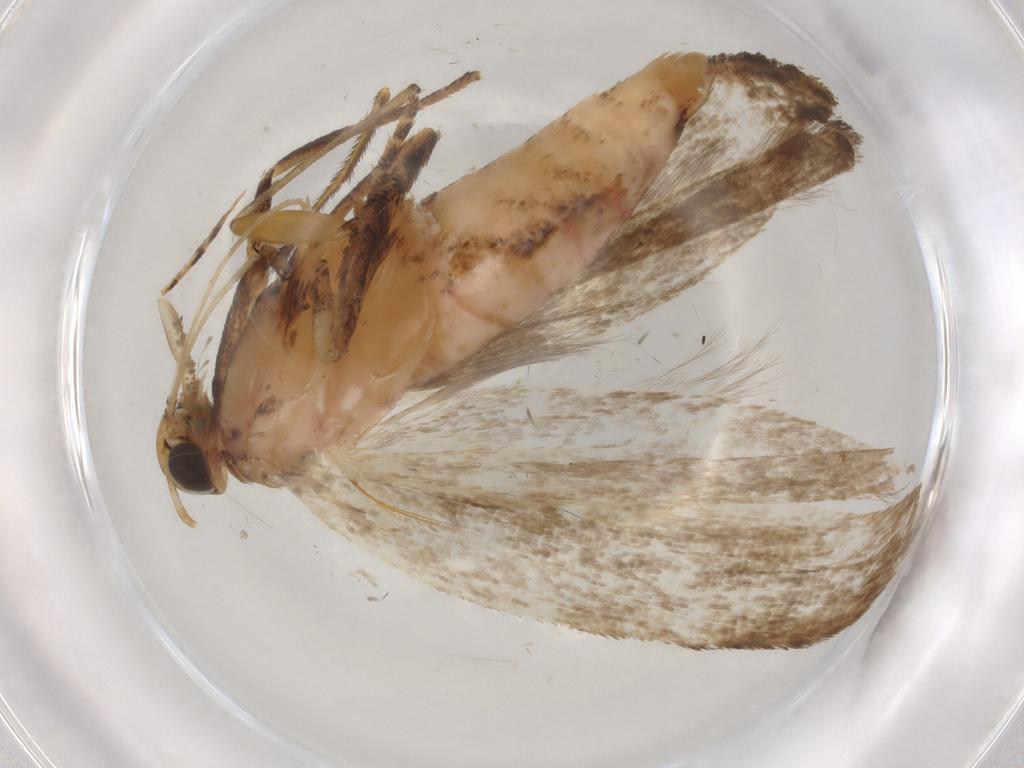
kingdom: Animalia
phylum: Arthropoda
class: Insecta
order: Lepidoptera
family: Gelechiidae
